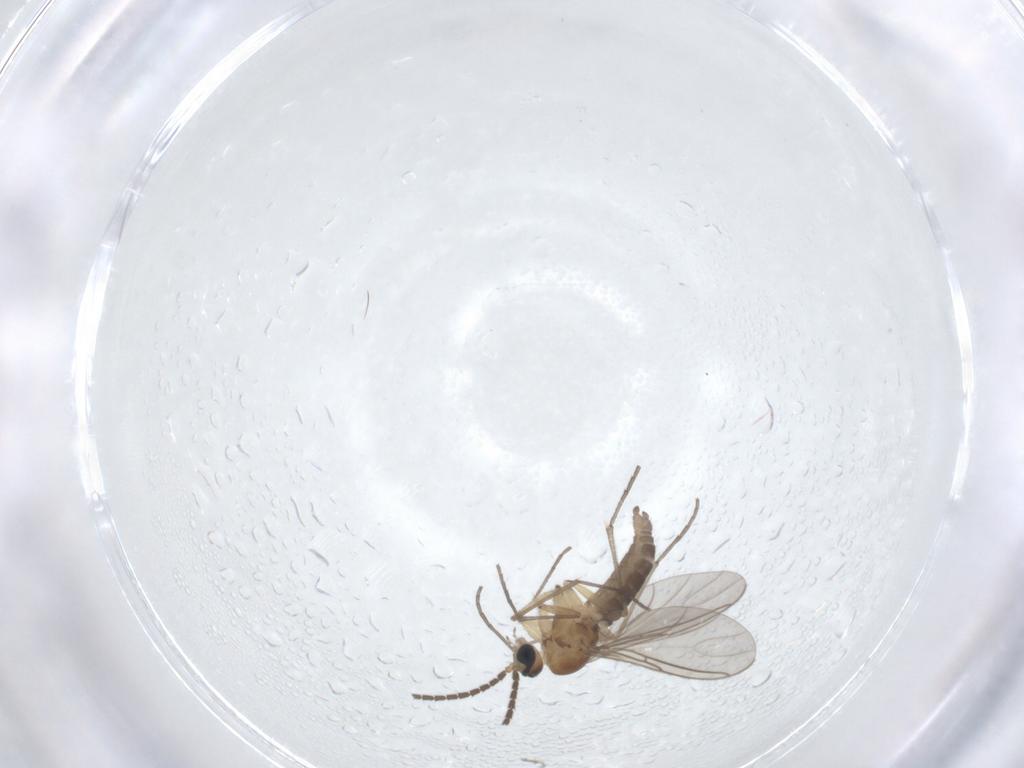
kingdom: Animalia
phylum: Arthropoda
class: Insecta
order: Diptera
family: Sciaridae
